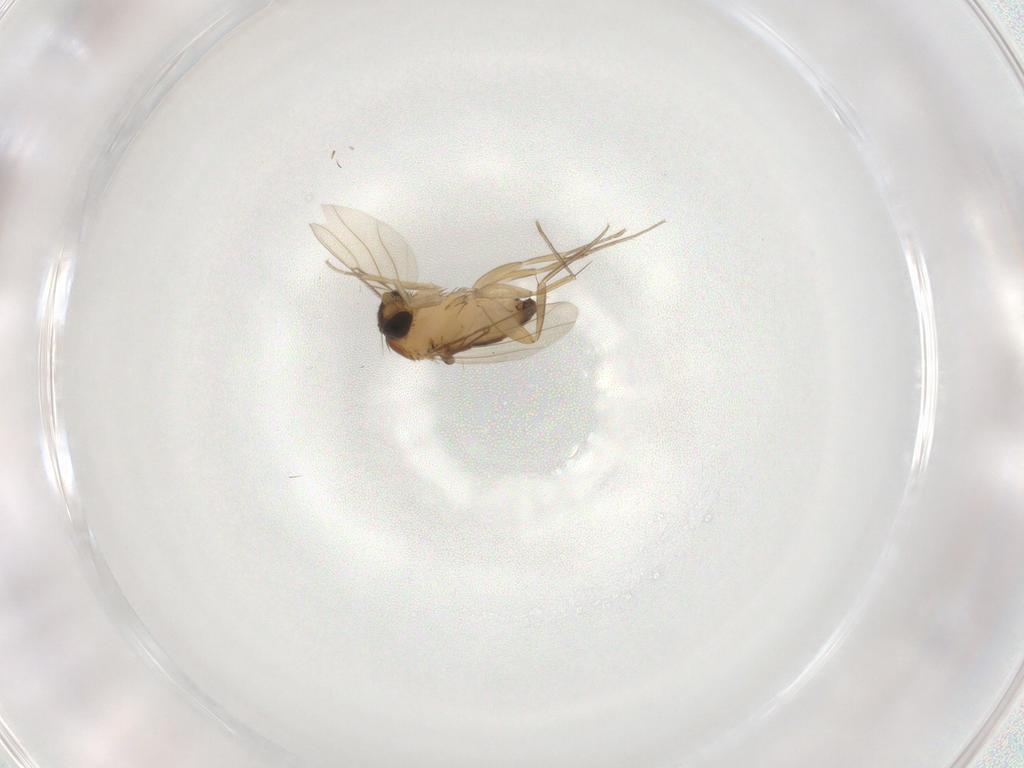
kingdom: Animalia
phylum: Arthropoda
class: Insecta
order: Diptera
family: Phoridae
